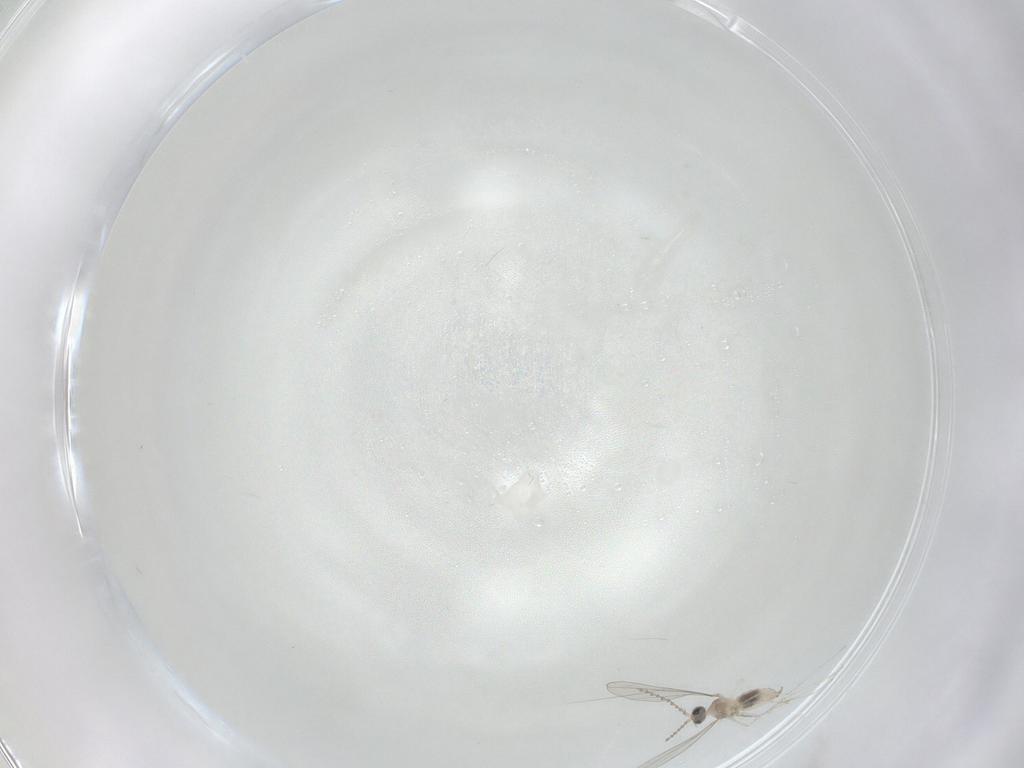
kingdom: Animalia
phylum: Arthropoda
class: Insecta
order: Diptera
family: Cecidomyiidae
